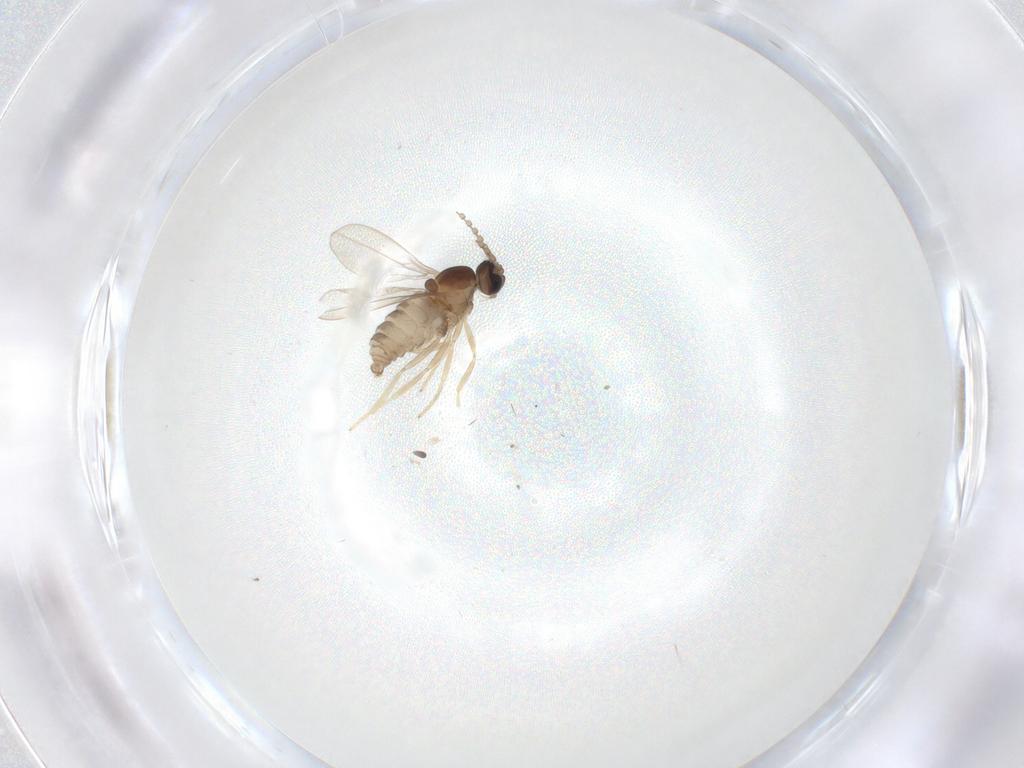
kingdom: Animalia
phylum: Arthropoda
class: Insecta
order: Diptera
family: Cecidomyiidae
